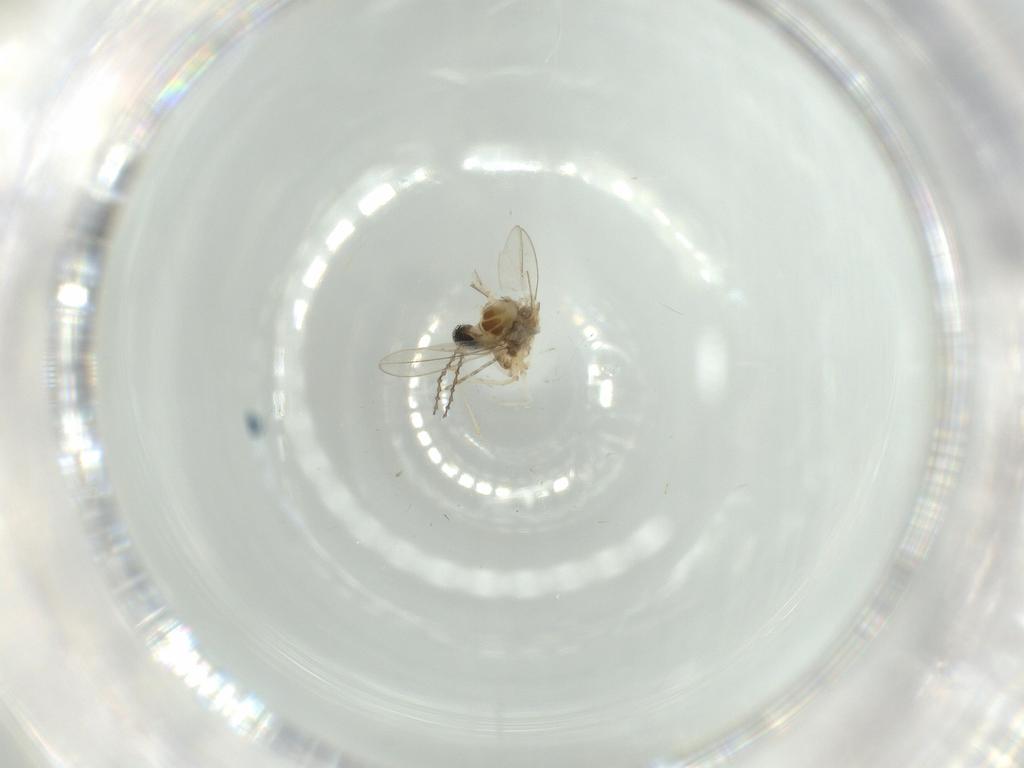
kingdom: Animalia
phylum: Arthropoda
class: Insecta
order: Diptera
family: Cecidomyiidae
